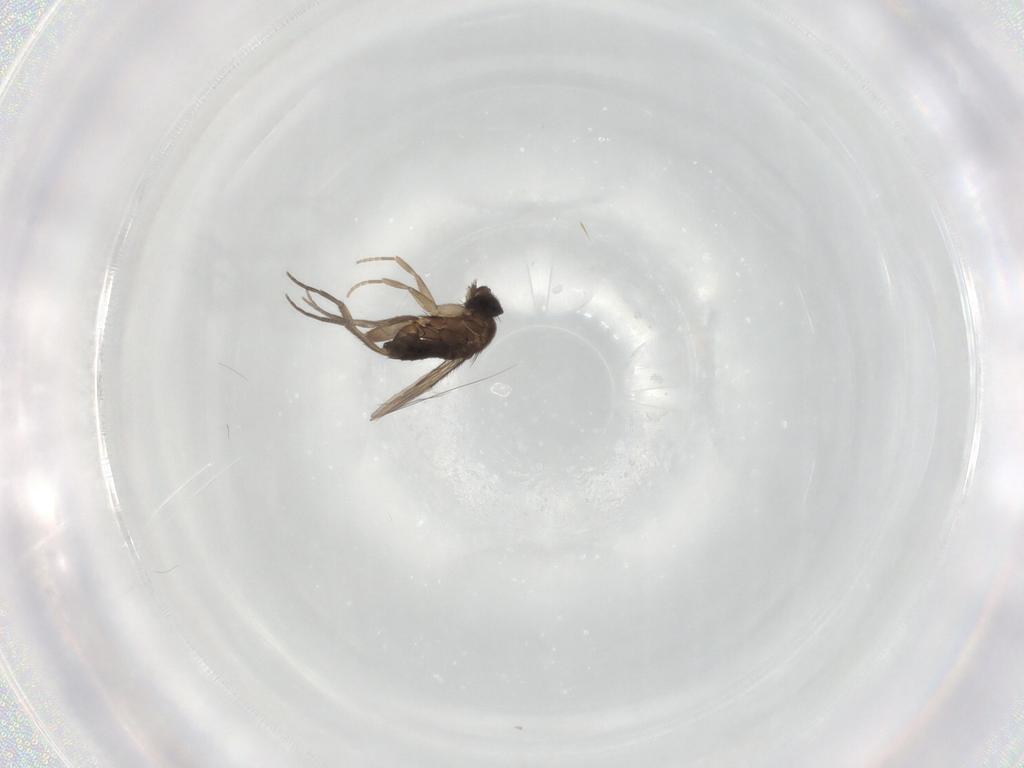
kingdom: Animalia
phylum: Arthropoda
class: Insecta
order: Diptera
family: Phoridae
